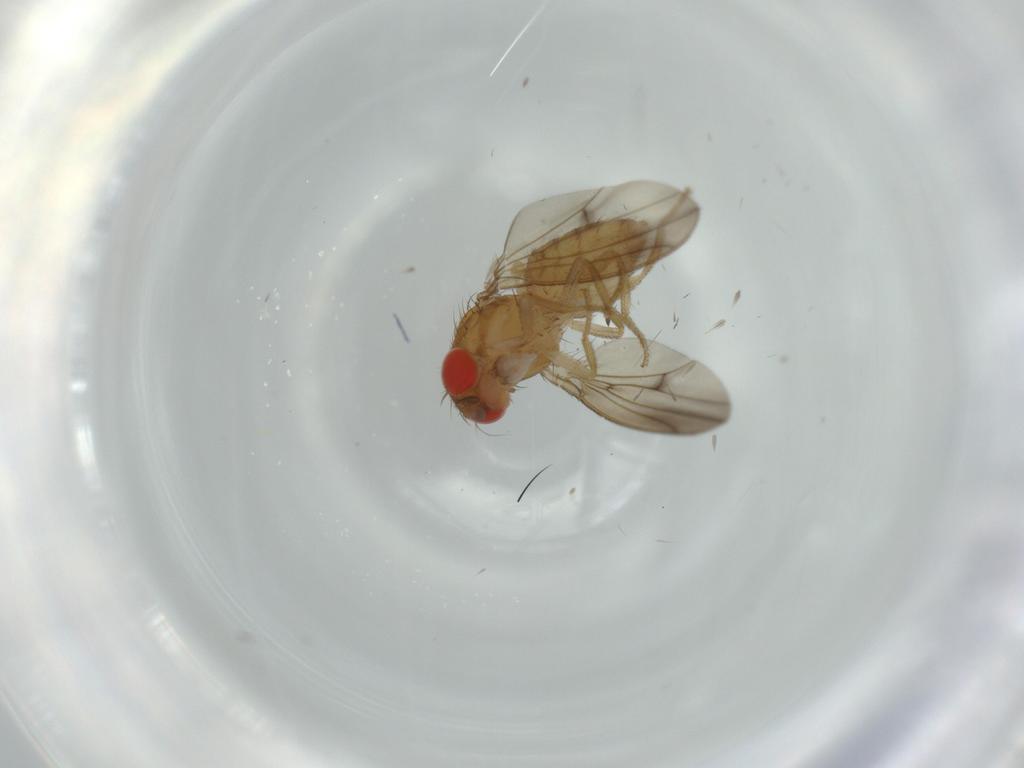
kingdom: Animalia
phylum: Arthropoda
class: Insecta
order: Diptera
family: Drosophilidae
